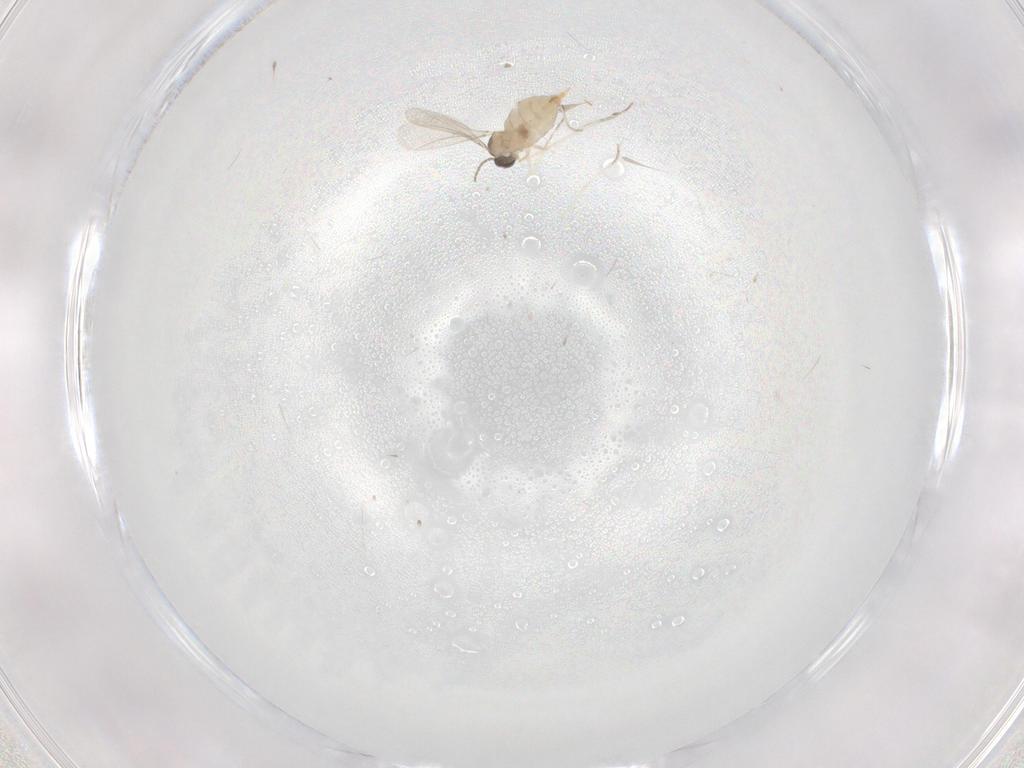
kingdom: Animalia
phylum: Arthropoda
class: Insecta
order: Diptera
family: Cecidomyiidae
